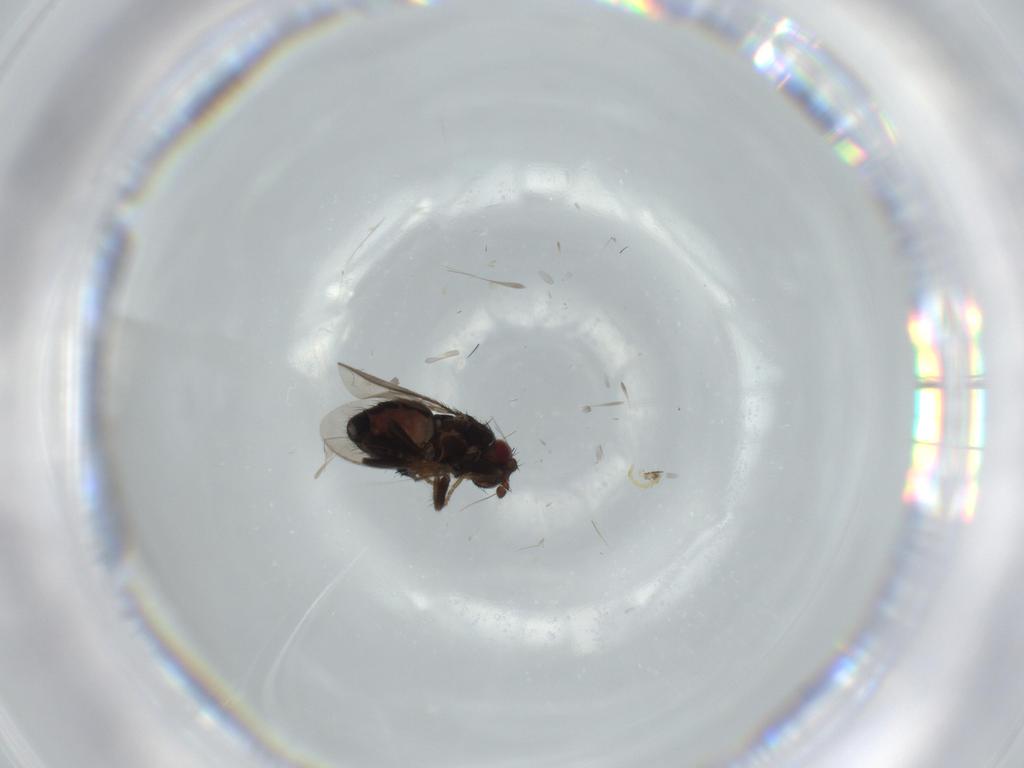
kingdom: Animalia
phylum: Arthropoda
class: Insecta
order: Diptera
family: Sphaeroceridae
